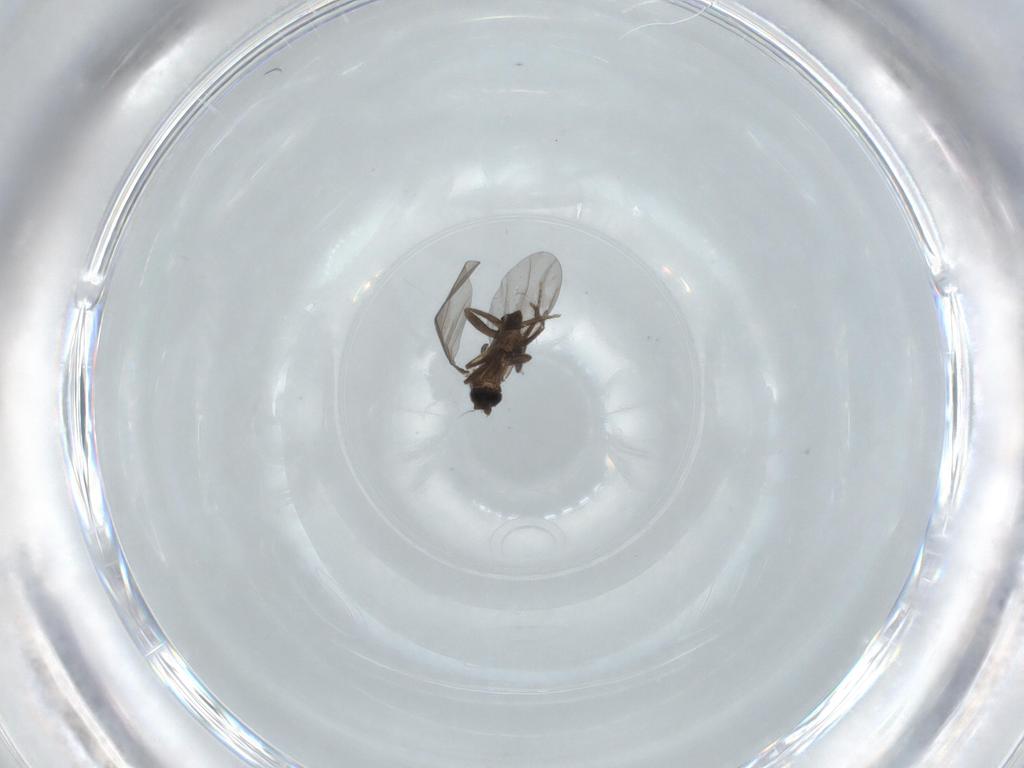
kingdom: Animalia
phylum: Arthropoda
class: Insecta
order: Diptera
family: Phoridae
